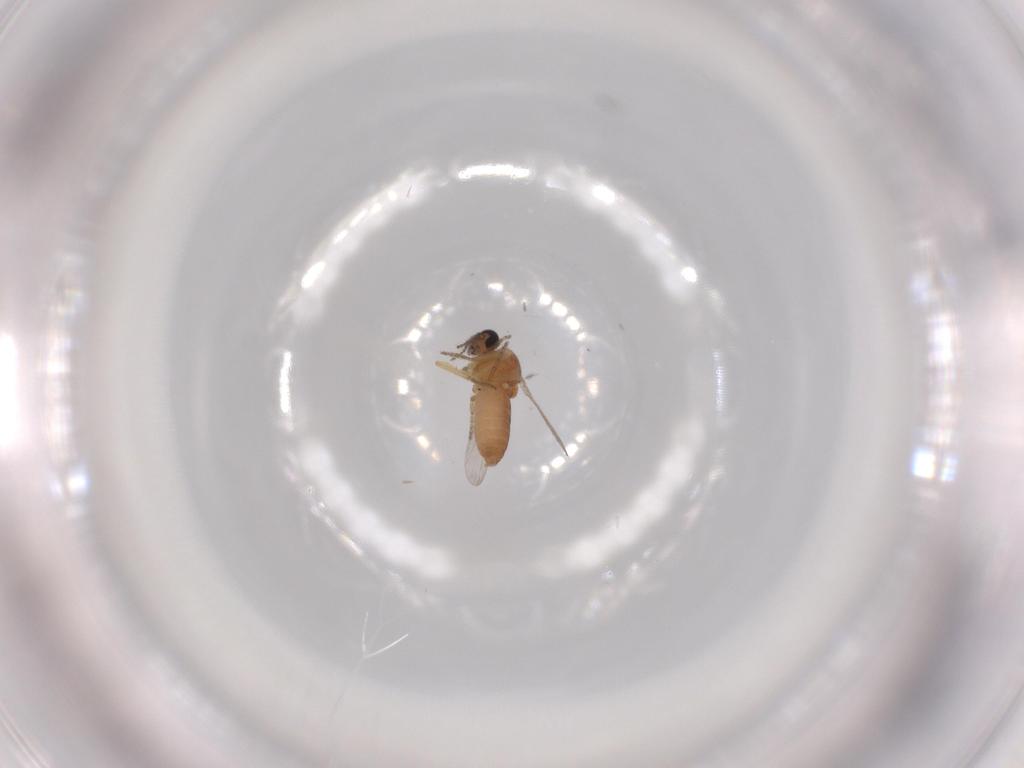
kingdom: Animalia
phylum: Arthropoda
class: Insecta
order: Diptera
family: Ceratopogonidae
